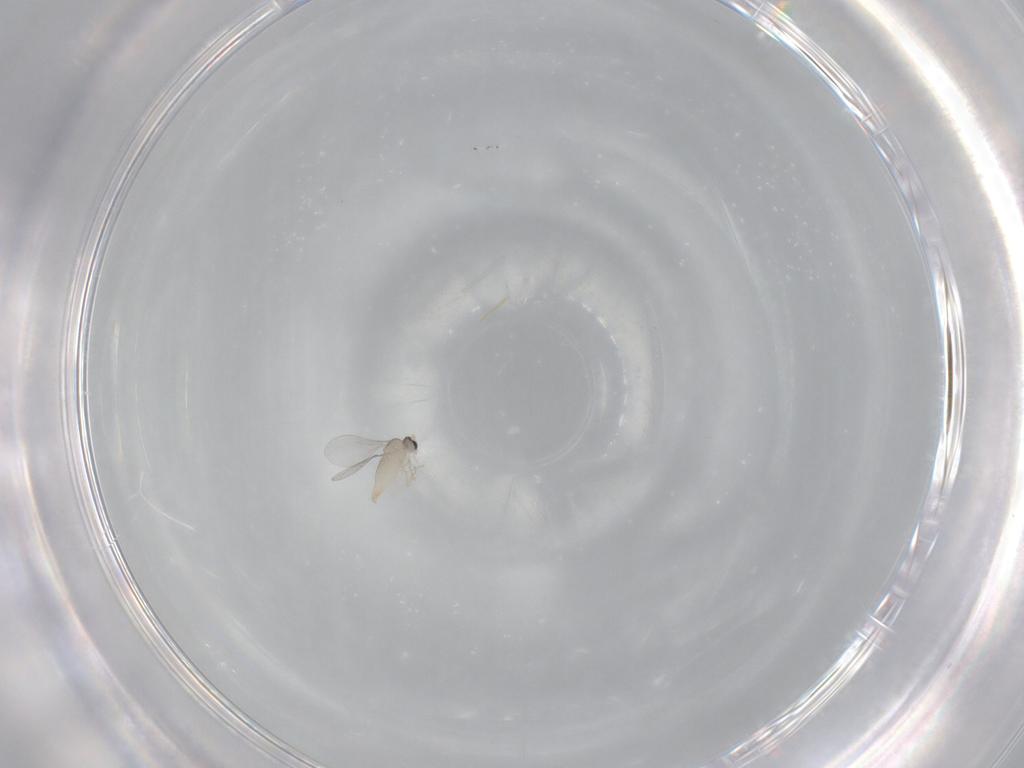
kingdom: Animalia
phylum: Arthropoda
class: Insecta
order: Diptera
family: Cecidomyiidae
